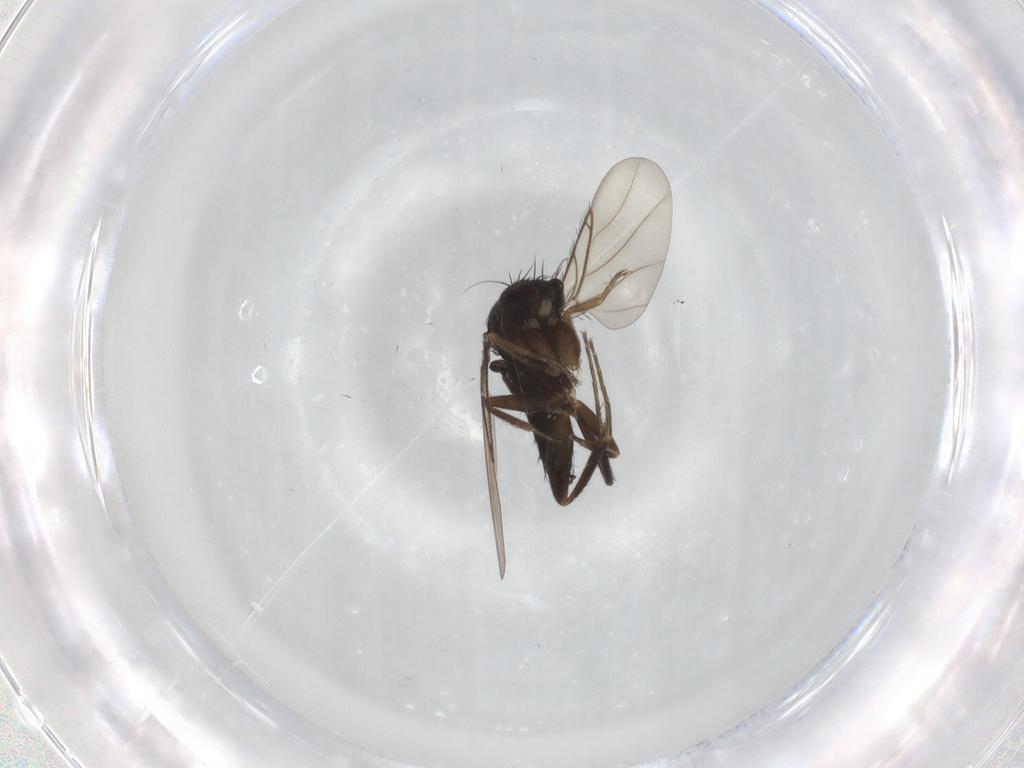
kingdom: Animalia
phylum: Arthropoda
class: Insecta
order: Diptera
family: Phoridae
